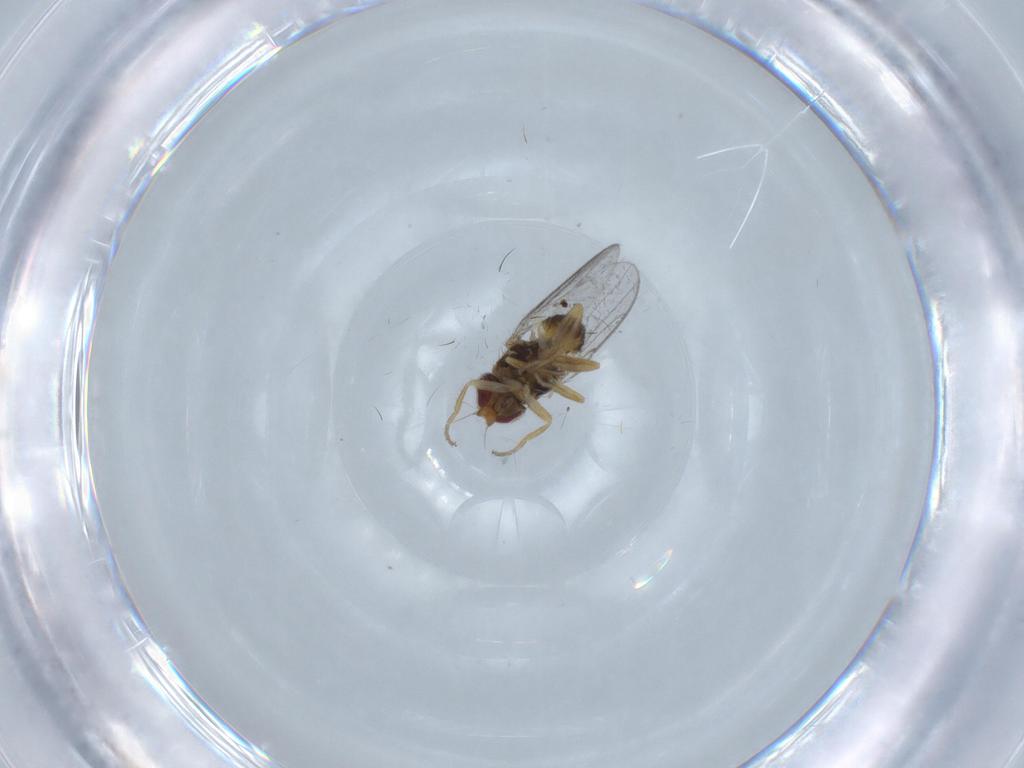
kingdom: Animalia
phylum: Arthropoda
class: Insecta
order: Diptera
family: Chloropidae
